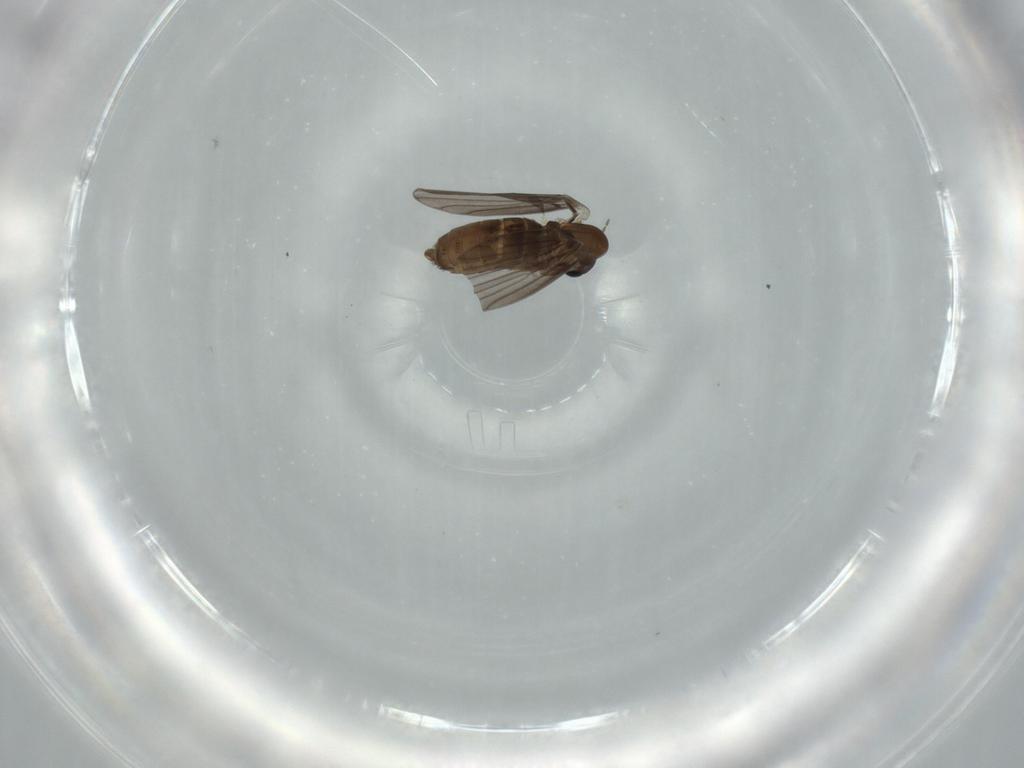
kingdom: Animalia
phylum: Arthropoda
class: Insecta
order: Diptera
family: Psychodidae
